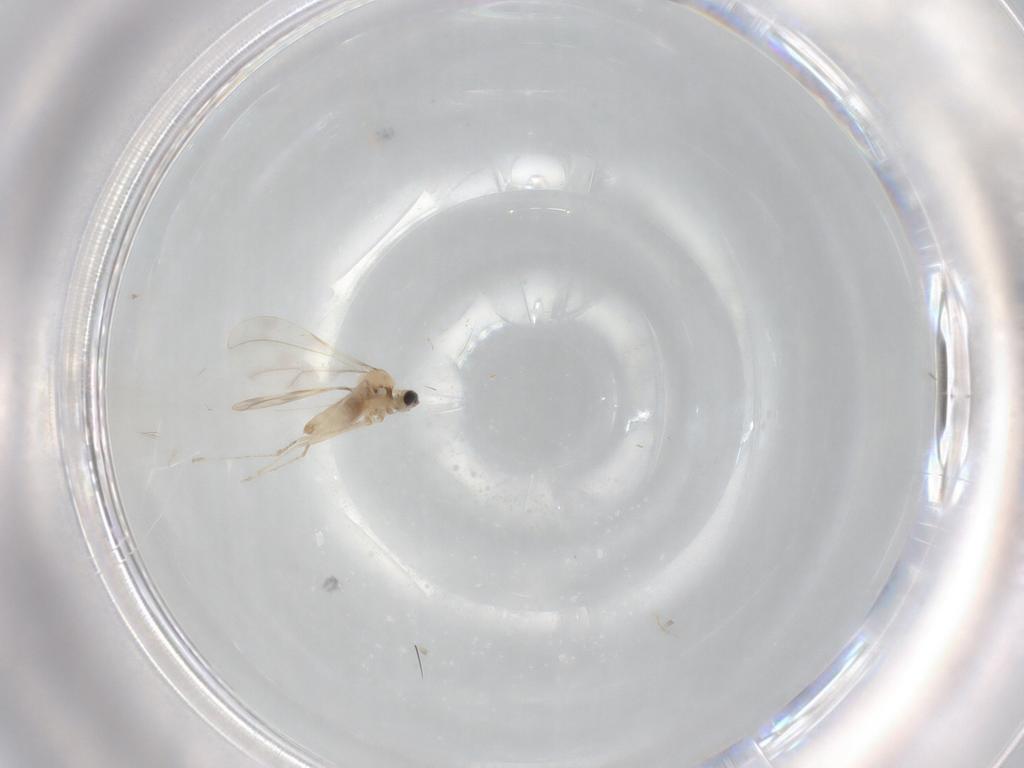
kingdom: Animalia
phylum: Arthropoda
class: Insecta
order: Diptera
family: Cecidomyiidae
